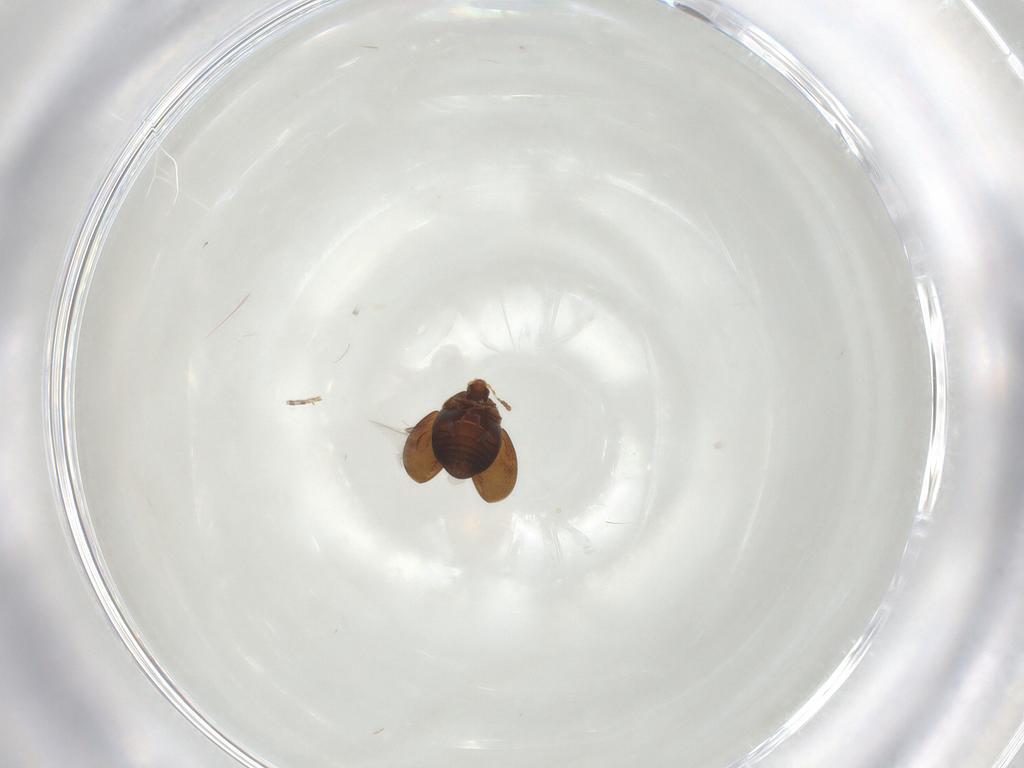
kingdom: Animalia
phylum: Arthropoda
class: Insecta
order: Coleoptera
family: Corylophidae
